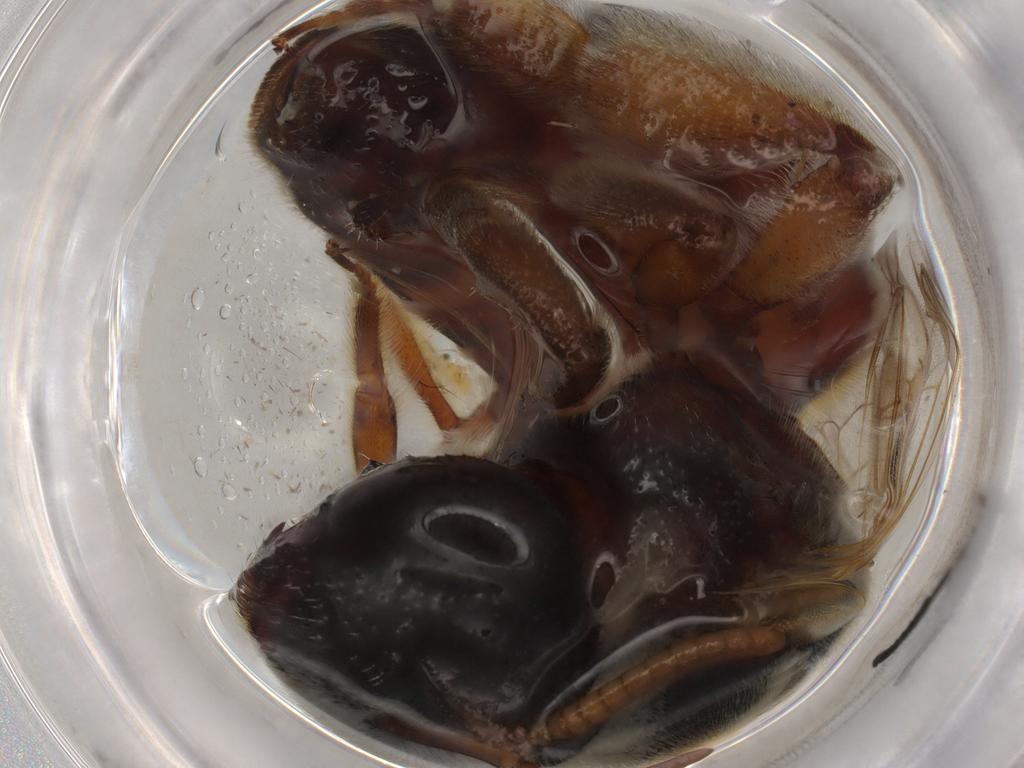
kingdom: Animalia
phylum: Arthropoda
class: Insecta
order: Hymenoptera
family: Pompilidae
